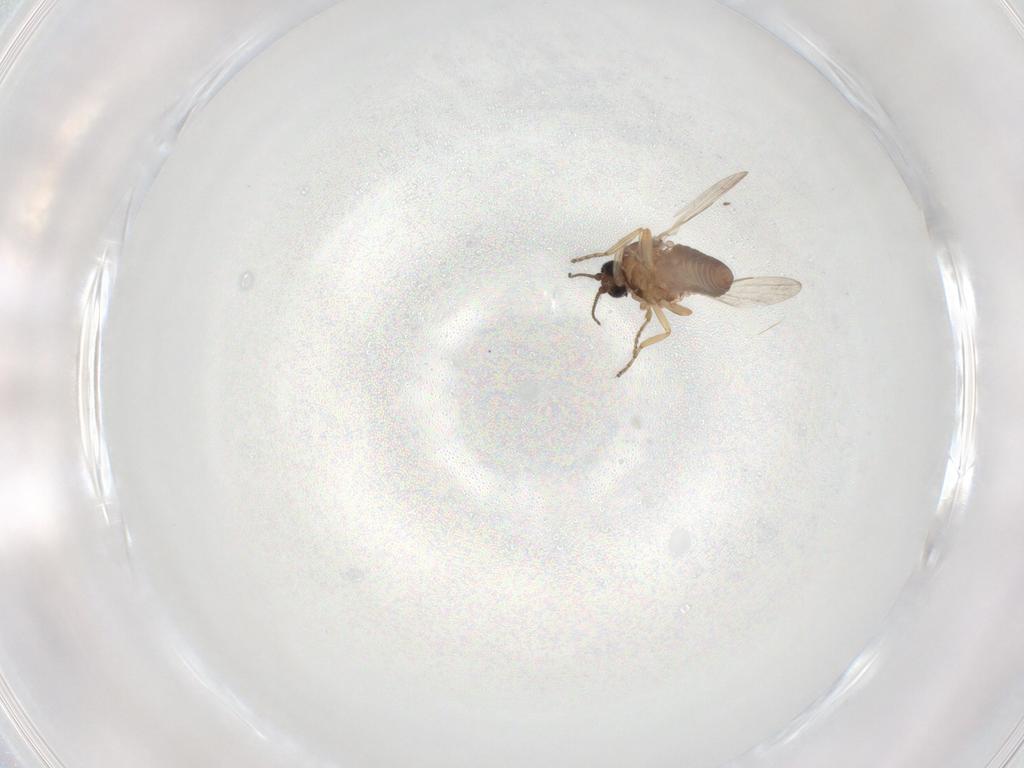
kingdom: Animalia
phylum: Arthropoda
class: Insecta
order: Diptera
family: Ceratopogonidae
